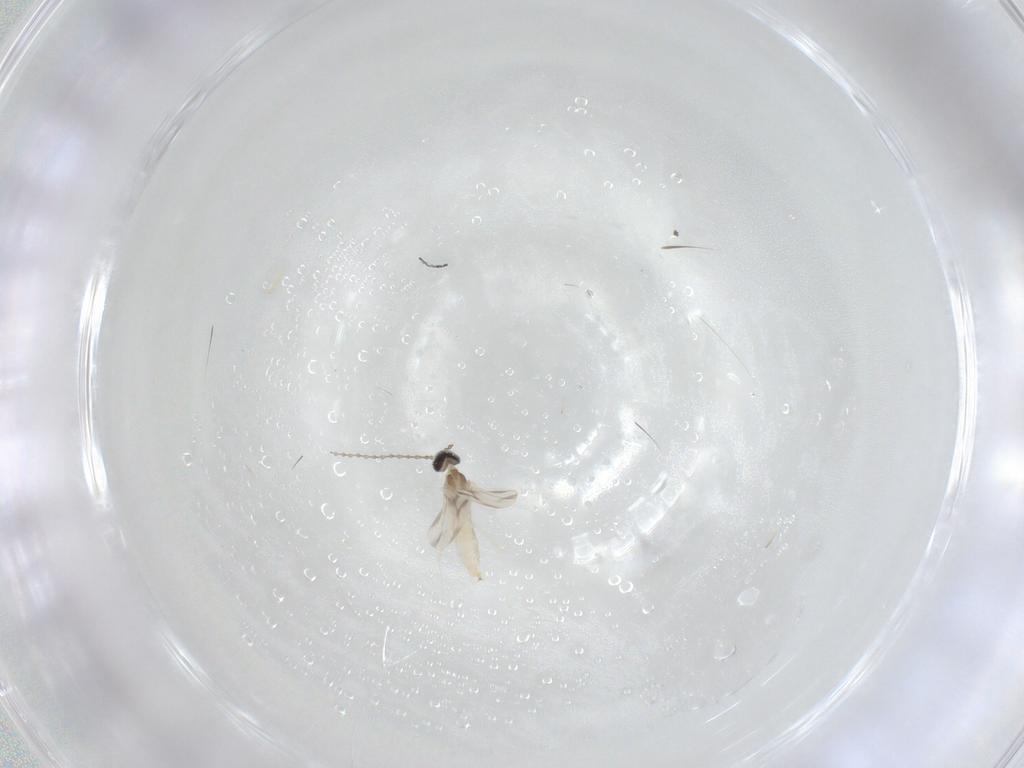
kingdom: Animalia
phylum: Arthropoda
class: Insecta
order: Diptera
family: Cecidomyiidae
